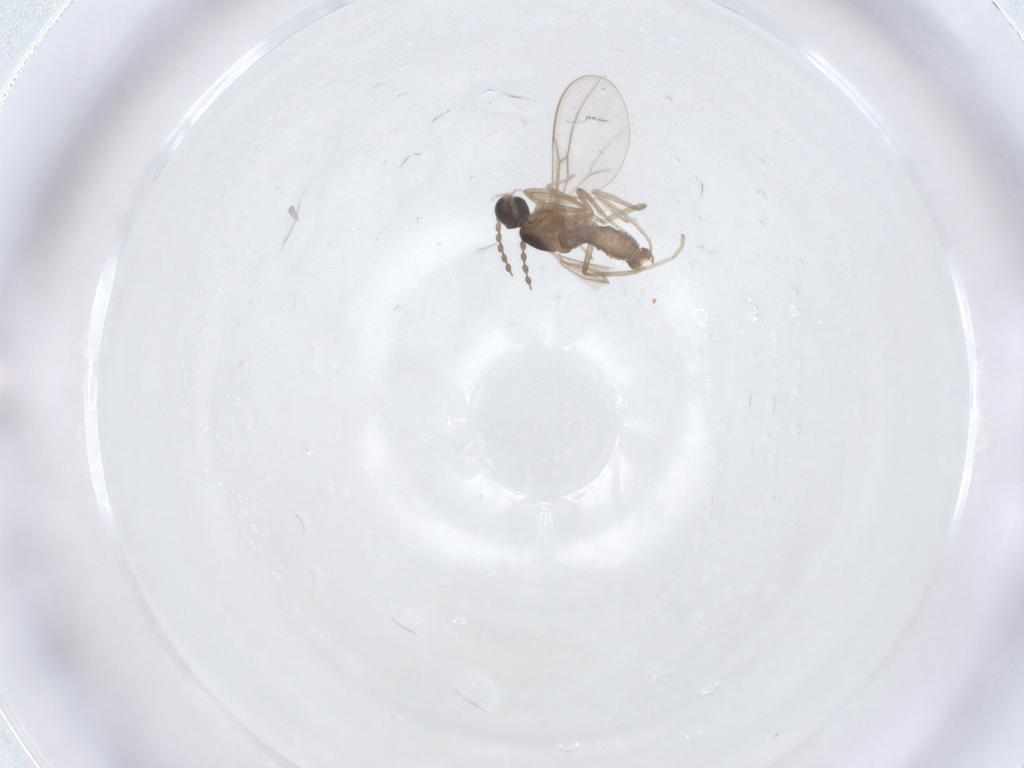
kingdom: Animalia
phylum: Arthropoda
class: Insecta
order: Diptera
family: Cecidomyiidae
